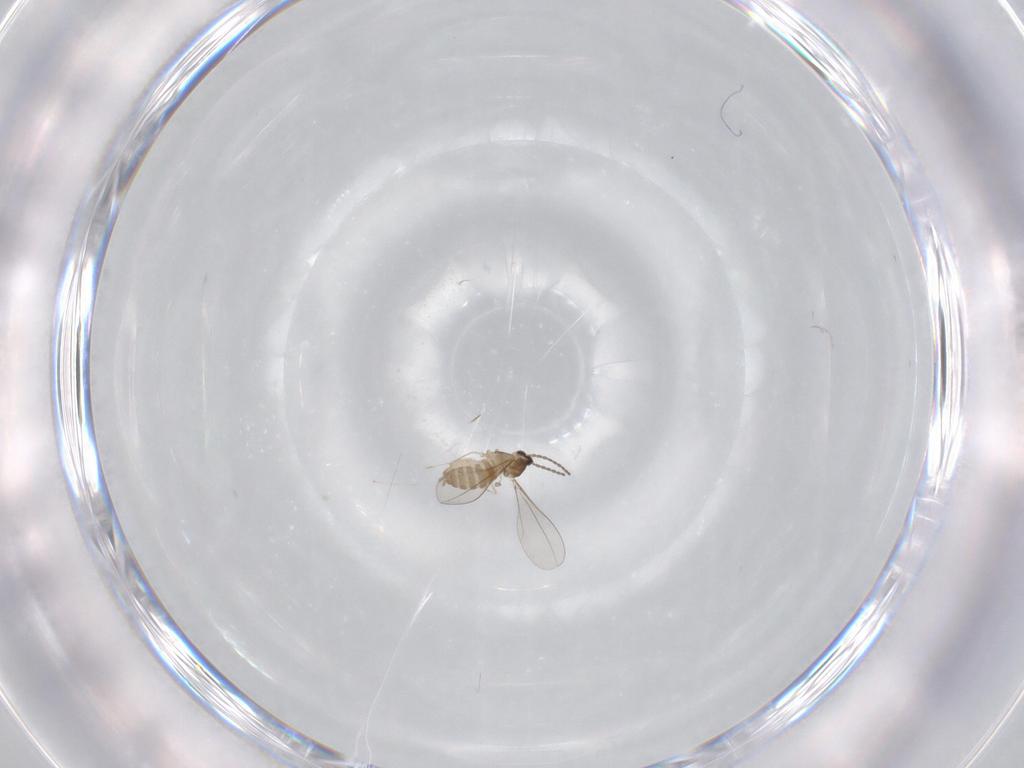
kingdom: Animalia
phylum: Arthropoda
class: Insecta
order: Diptera
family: Cecidomyiidae
